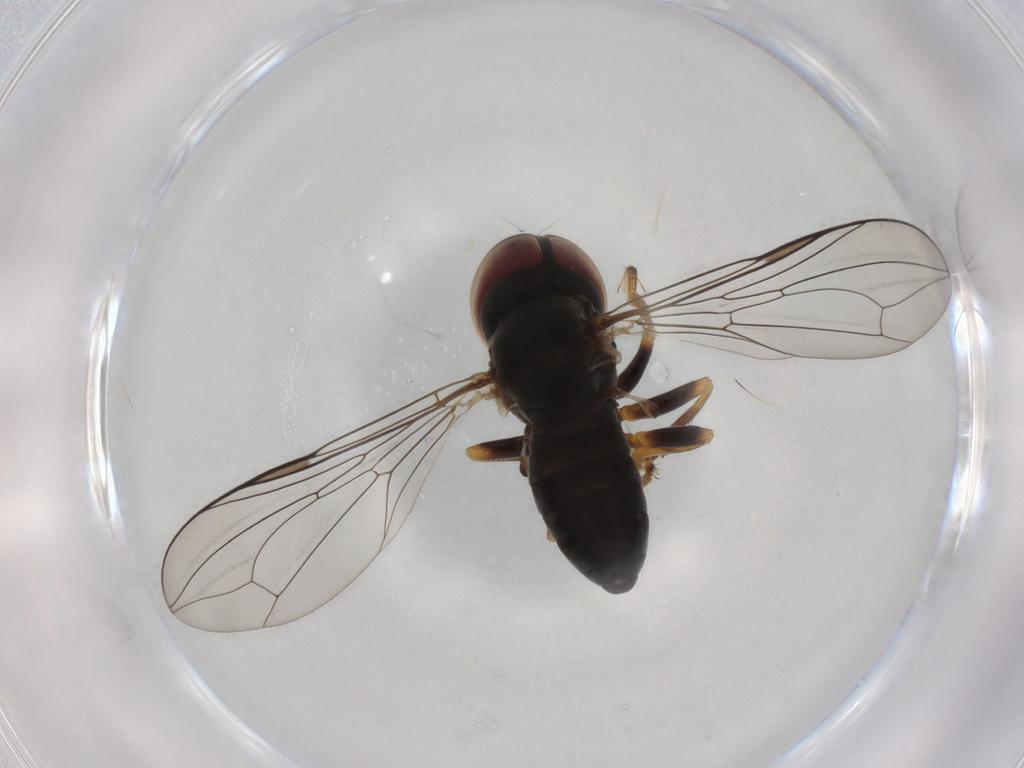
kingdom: Animalia
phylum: Arthropoda
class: Insecta
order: Diptera
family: Pipunculidae
